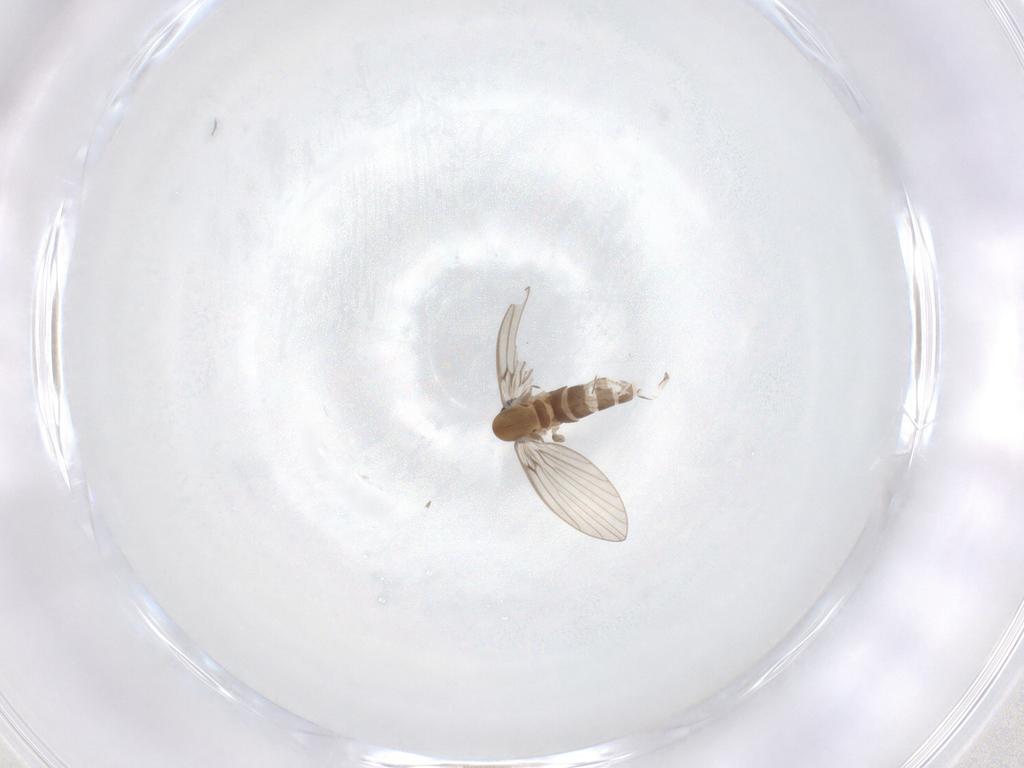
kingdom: Animalia
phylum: Arthropoda
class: Insecta
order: Diptera
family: Psychodidae
